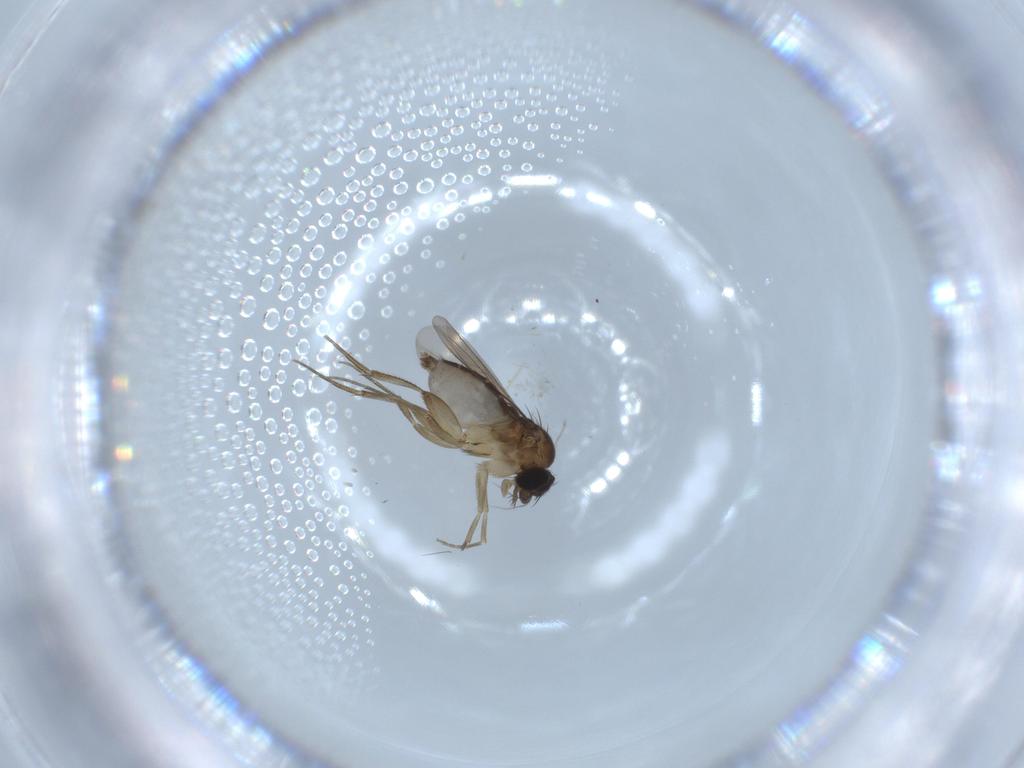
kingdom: Animalia
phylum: Arthropoda
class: Insecta
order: Diptera
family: Phoridae
